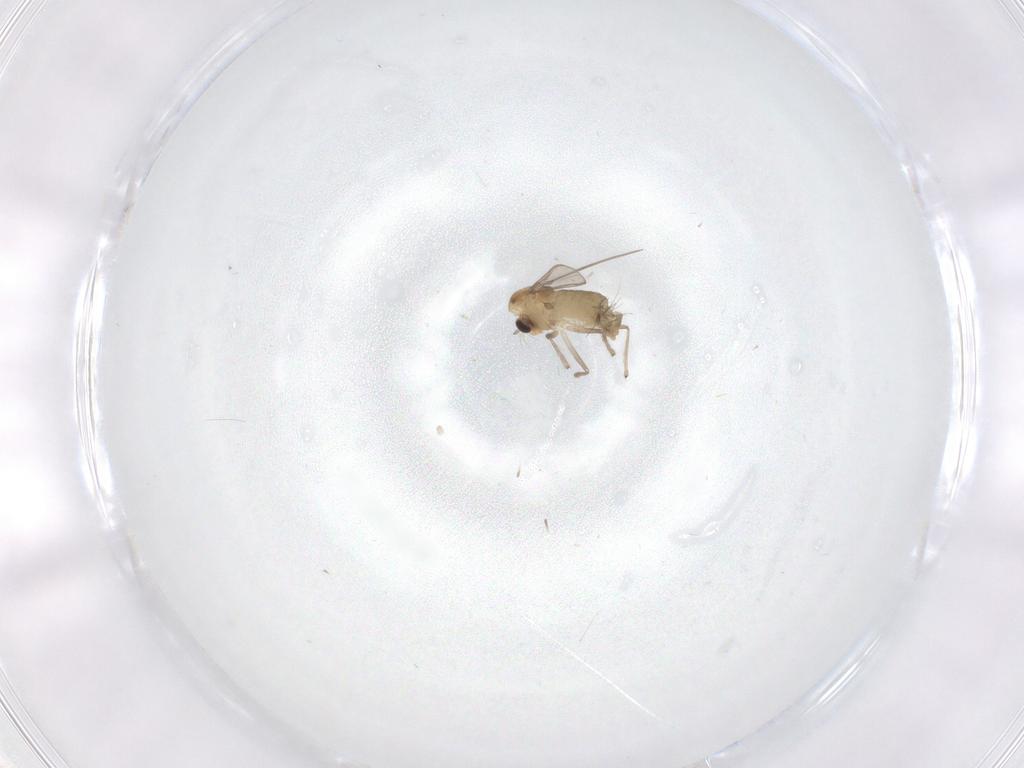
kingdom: Animalia
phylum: Arthropoda
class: Insecta
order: Diptera
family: Chironomidae
